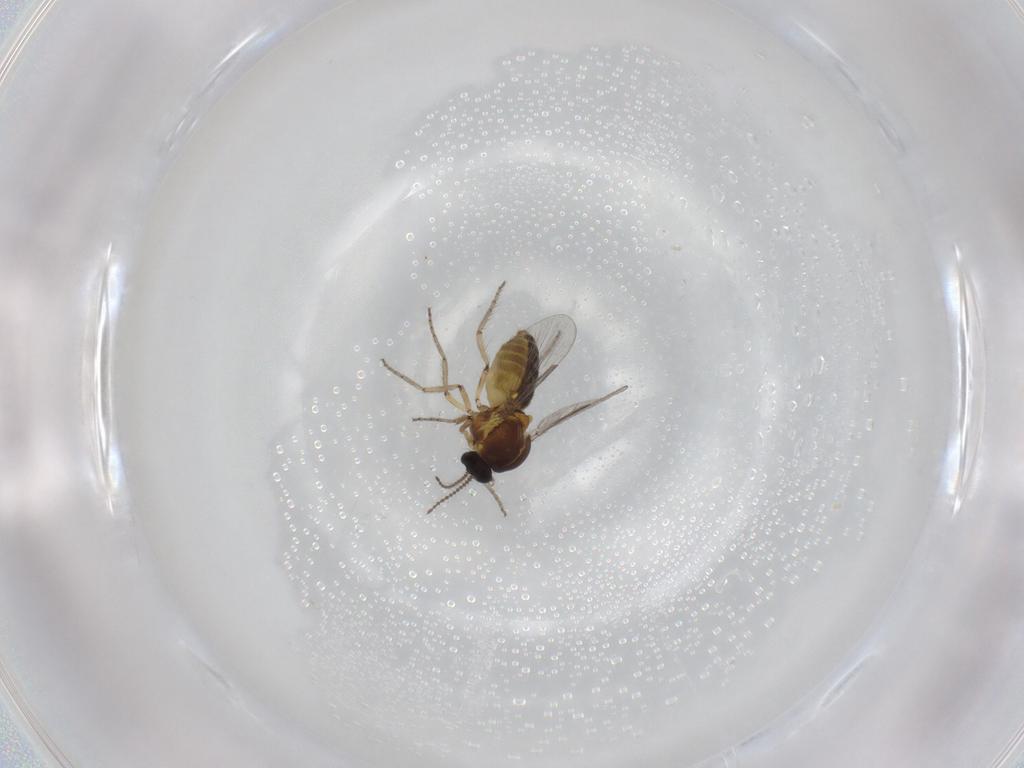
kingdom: Animalia
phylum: Arthropoda
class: Insecta
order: Diptera
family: Ceratopogonidae
